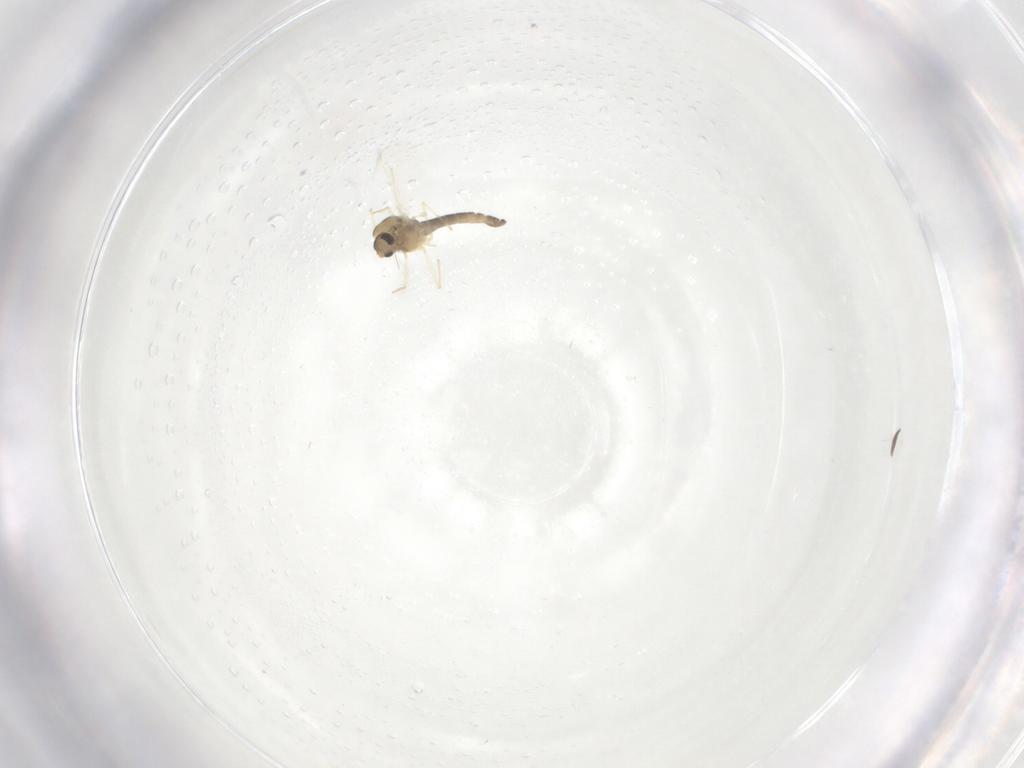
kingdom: Animalia
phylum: Arthropoda
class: Insecta
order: Diptera
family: Psychodidae
